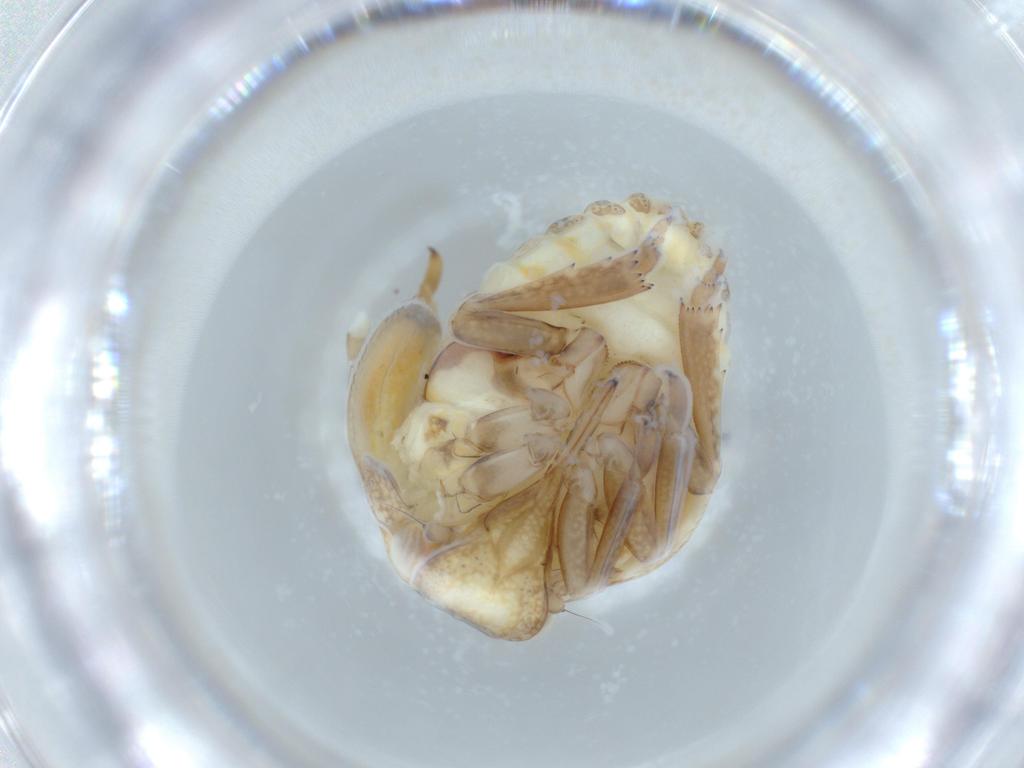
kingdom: Animalia
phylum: Arthropoda
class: Insecta
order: Hemiptera
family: Acanaloniidae
